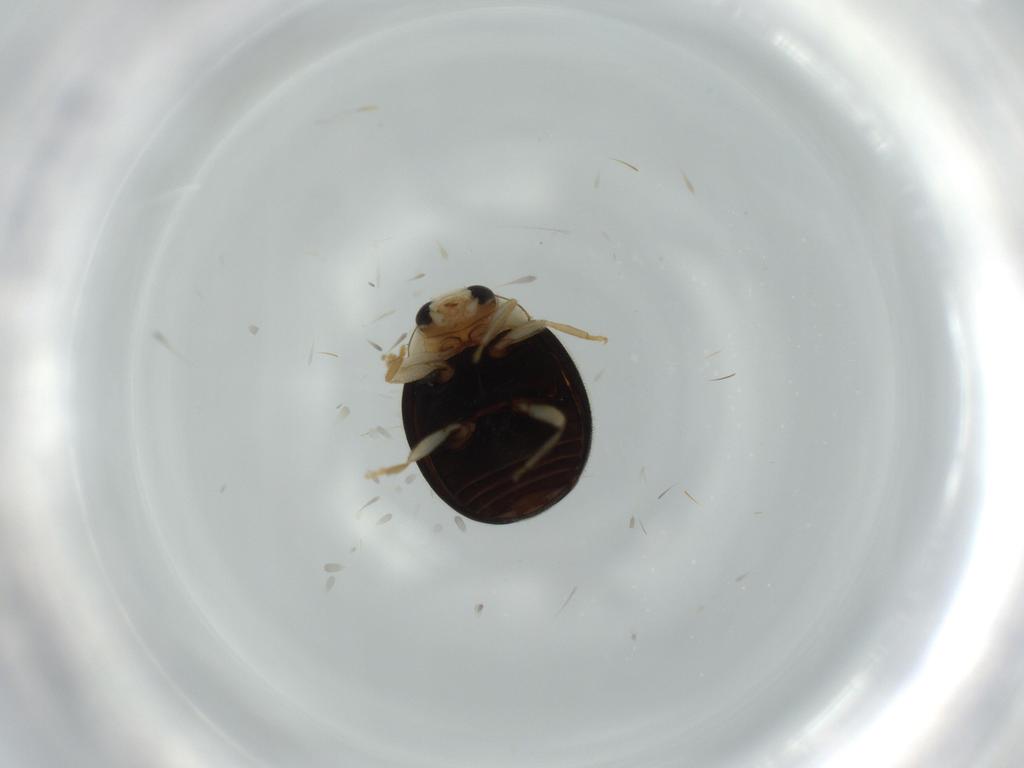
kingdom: Animalia
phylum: Arthropoda
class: Insecta
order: Coleoptera
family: Coccinellidae
